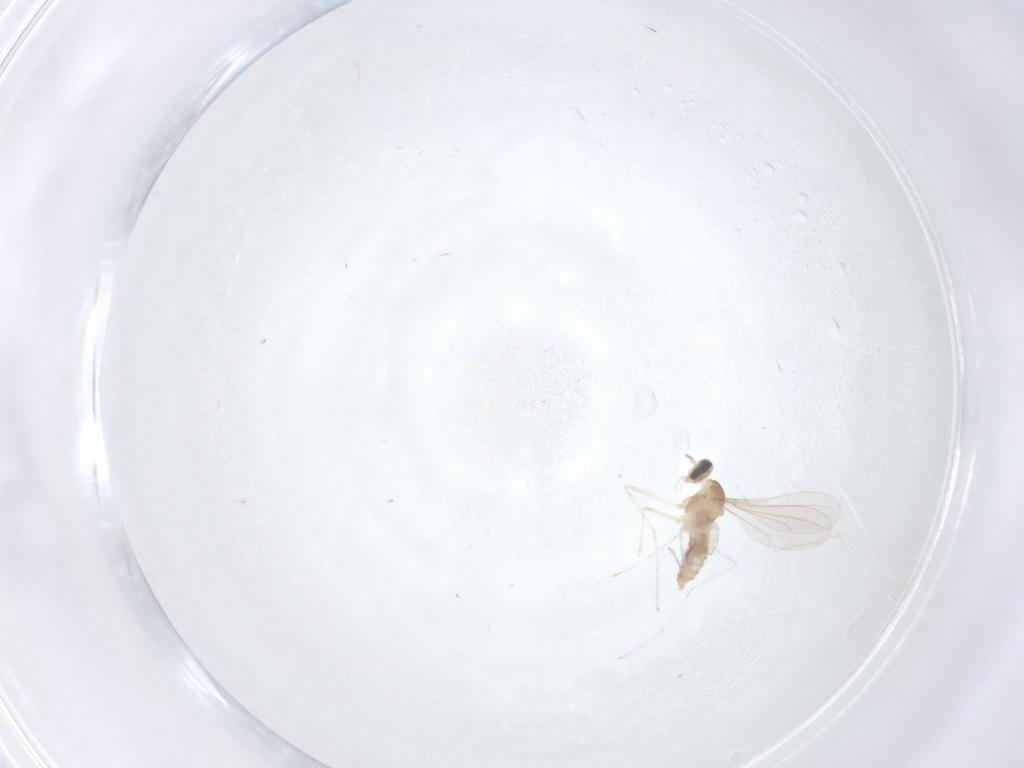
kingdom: Animalia
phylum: Arthropoda
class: Insecta
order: Diptera
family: Cecidomyiidae
